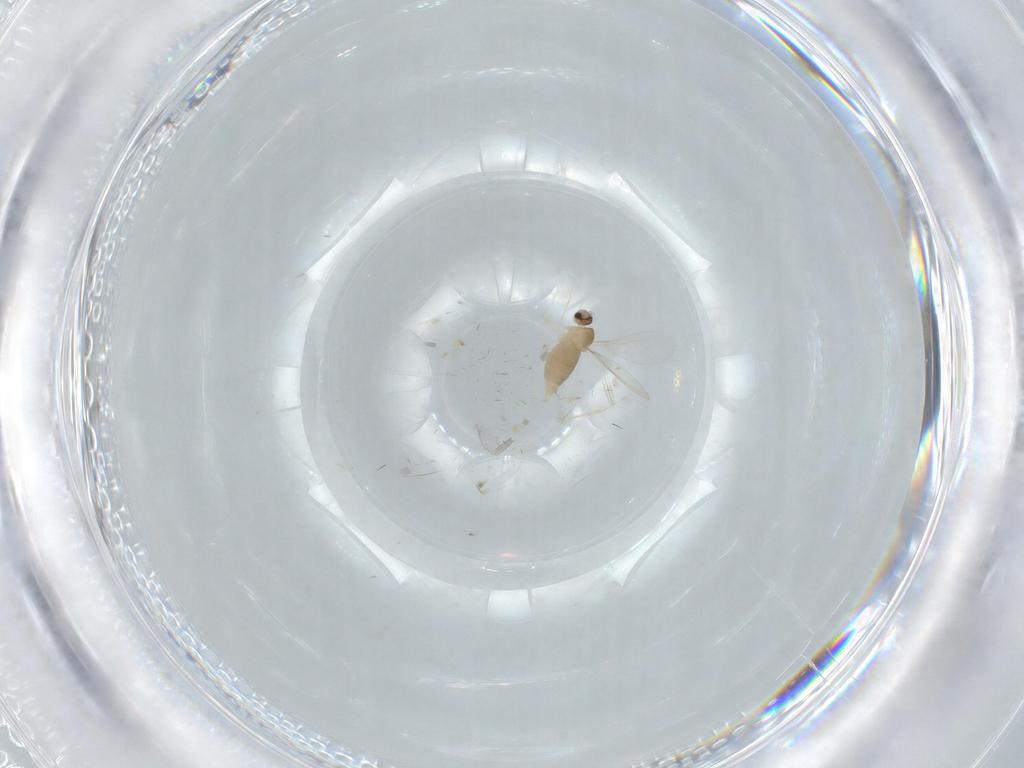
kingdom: Animalia
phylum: Arthropoda
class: Insecta
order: Diptera
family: Cecidomyiidae
